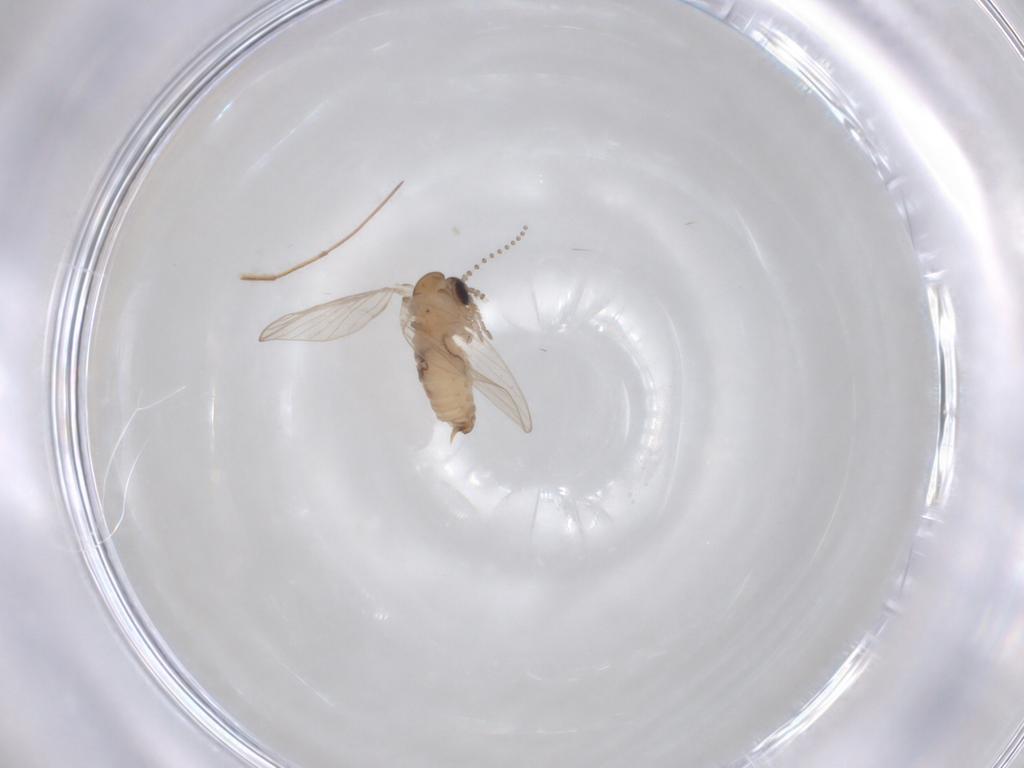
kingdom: Animalia
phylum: Arthropoda
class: Insecta
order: Diptera
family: Psychodidae
